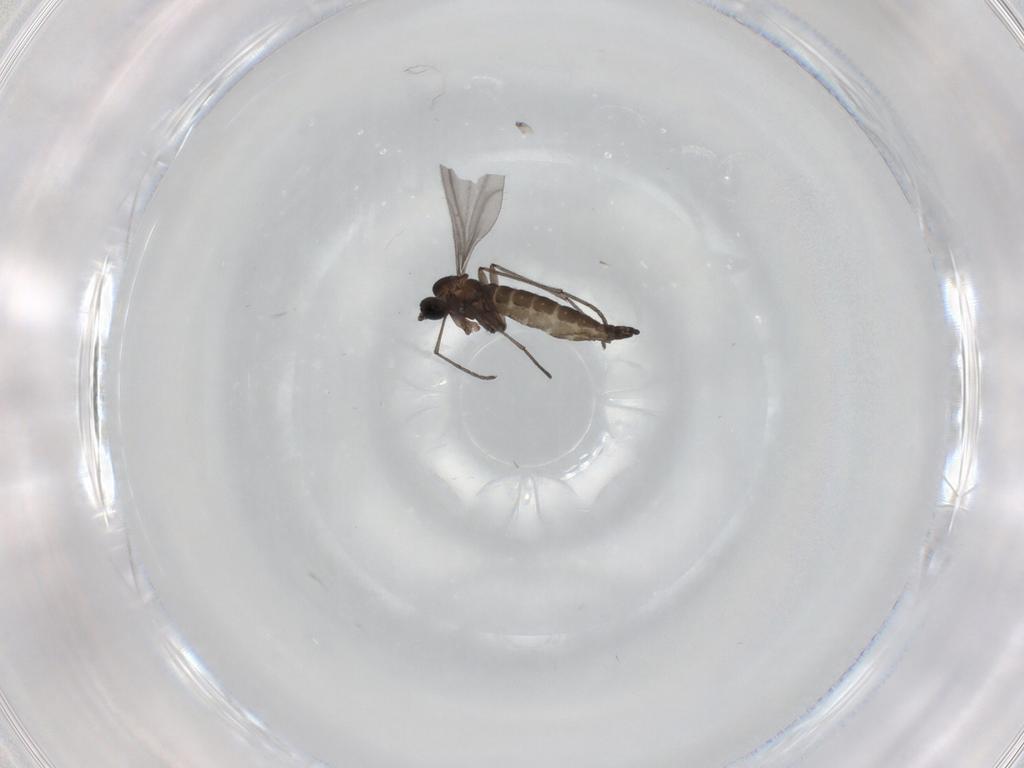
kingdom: Animalia
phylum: Arthropoda
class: Insecta
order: Diptera
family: Sciaridae
